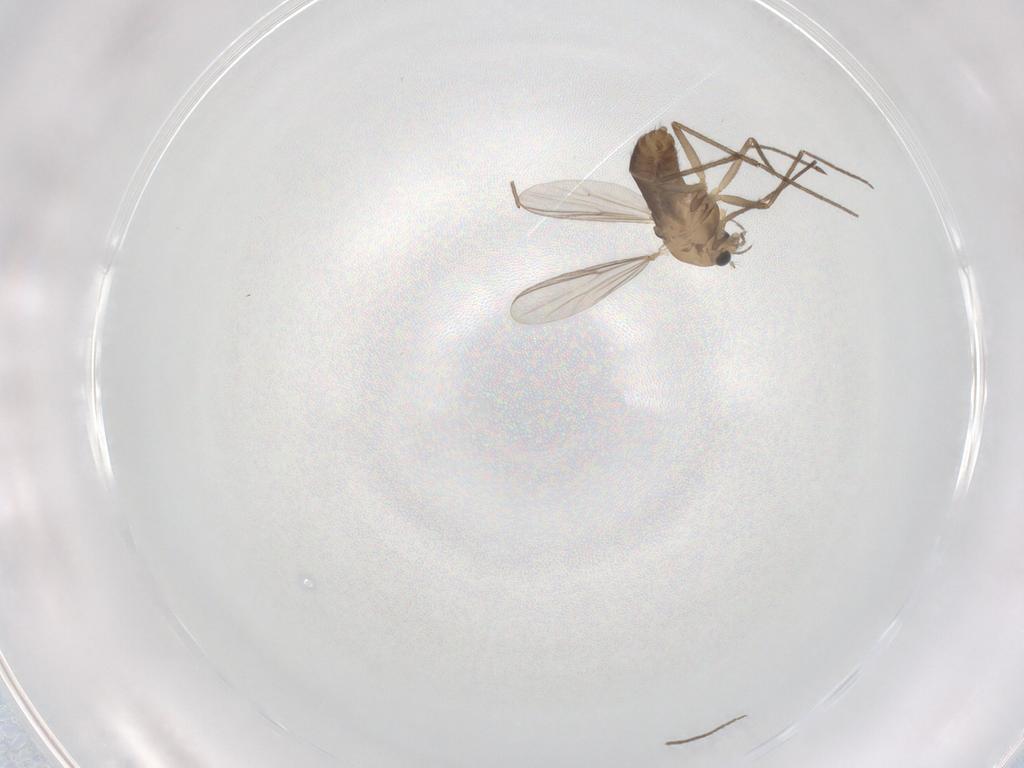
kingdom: Animalia
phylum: Arthropoda
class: Insecta
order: Diptera
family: Chironomidae
